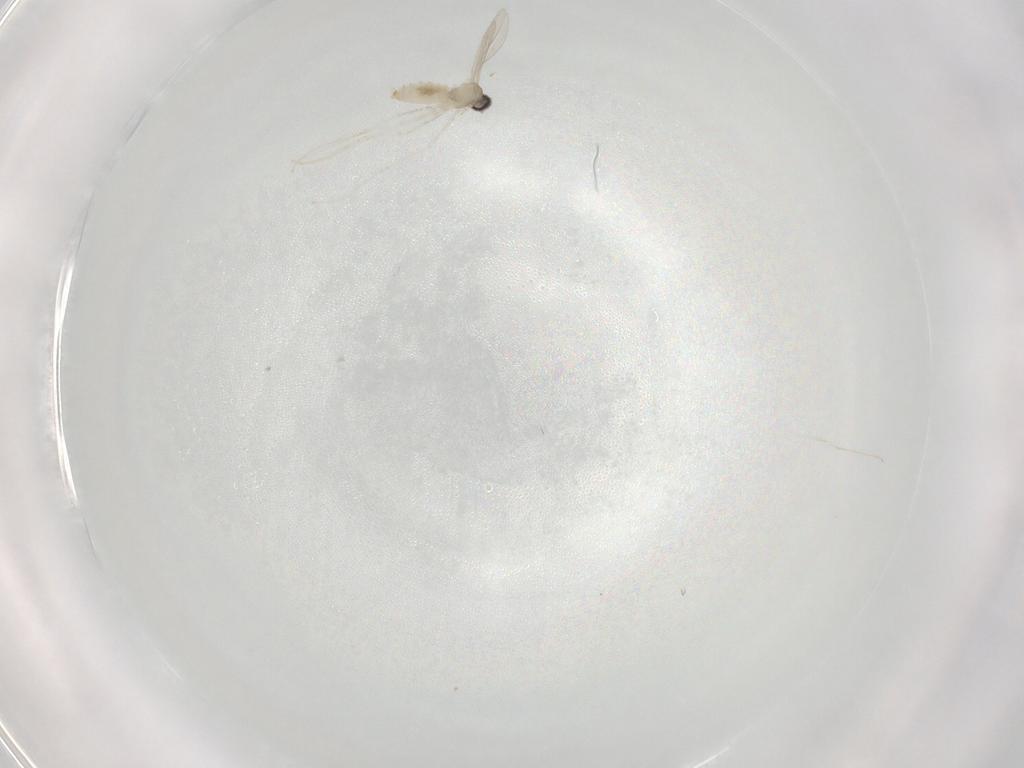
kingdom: Animalia
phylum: Arthropoda
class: Insecta
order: Diptera
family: Cecidomyiidae
